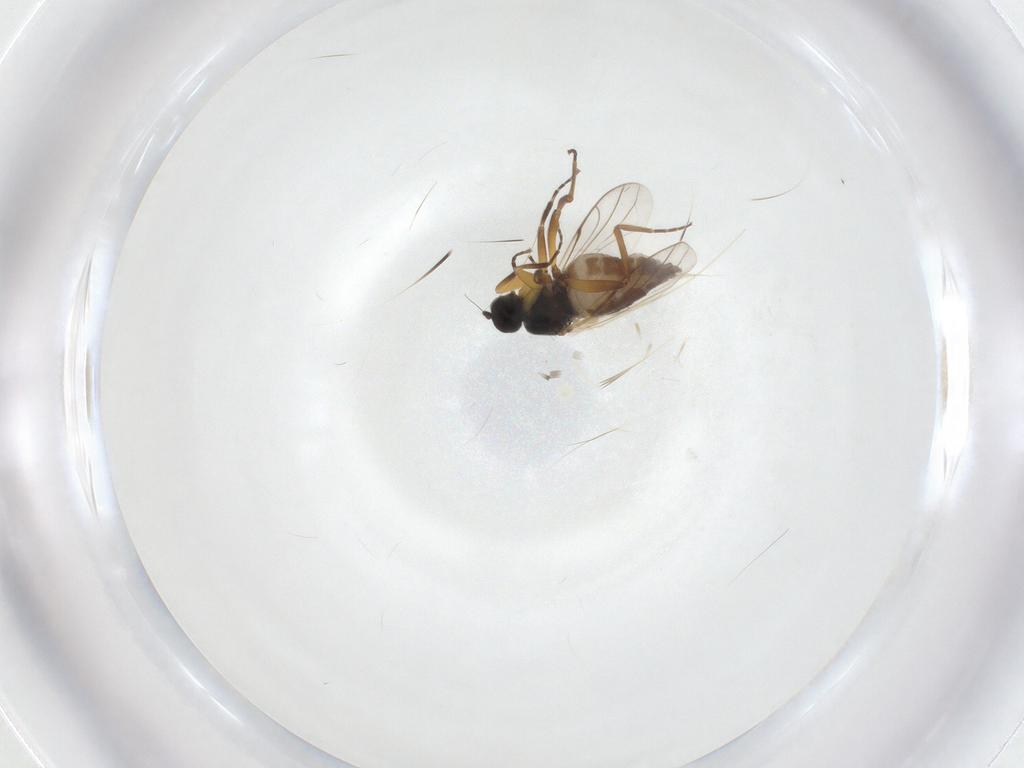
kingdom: Animalia
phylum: Arthropoda
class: Insecta
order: Diptera
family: Hybotidae
